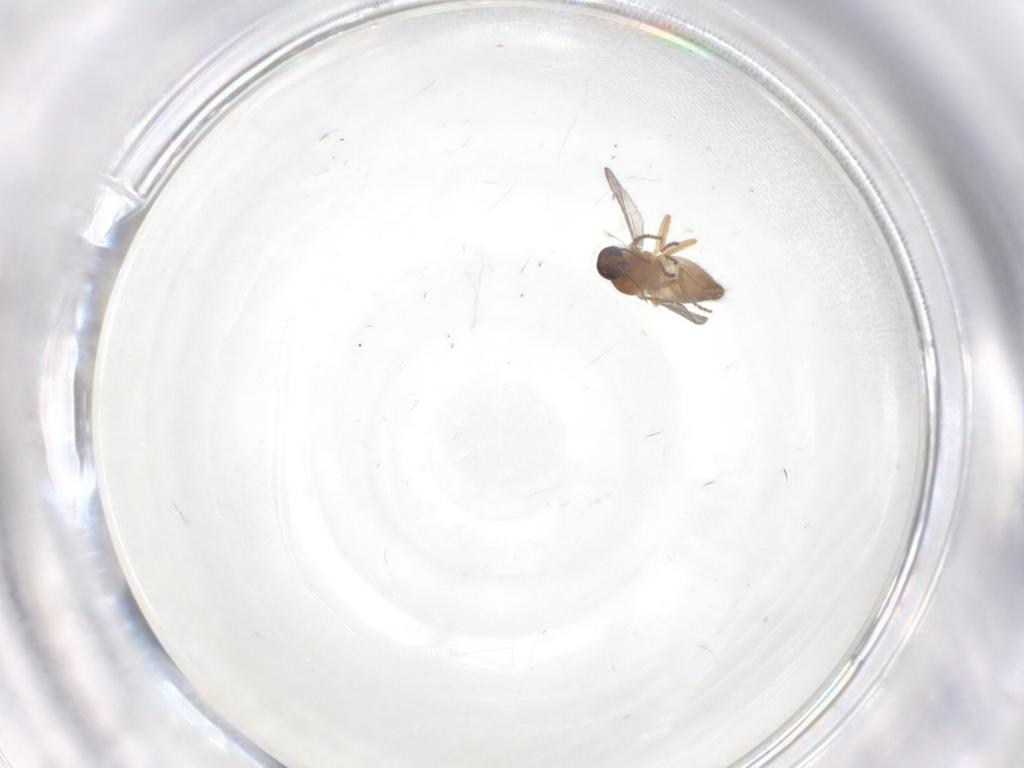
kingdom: Animalia
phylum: Arthropoda
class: Insecta
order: Diptera
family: Ceratopogonidae
